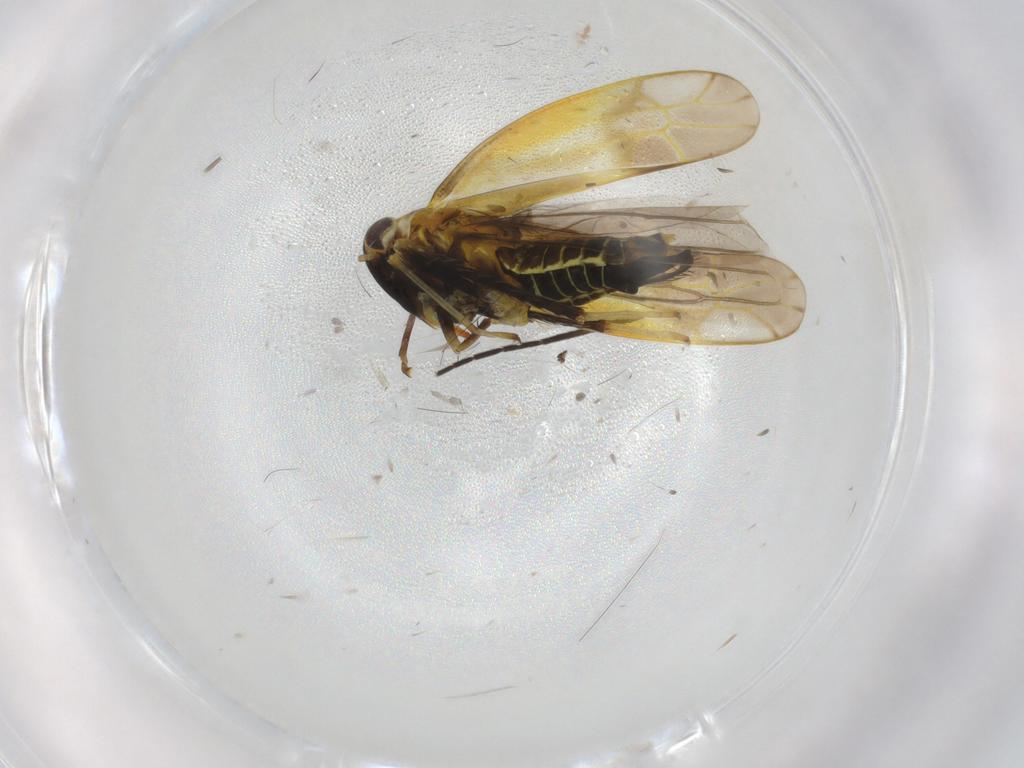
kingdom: Animalia
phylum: Arthropoda
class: Insecta
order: Hemiptera
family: Cicadellidae
